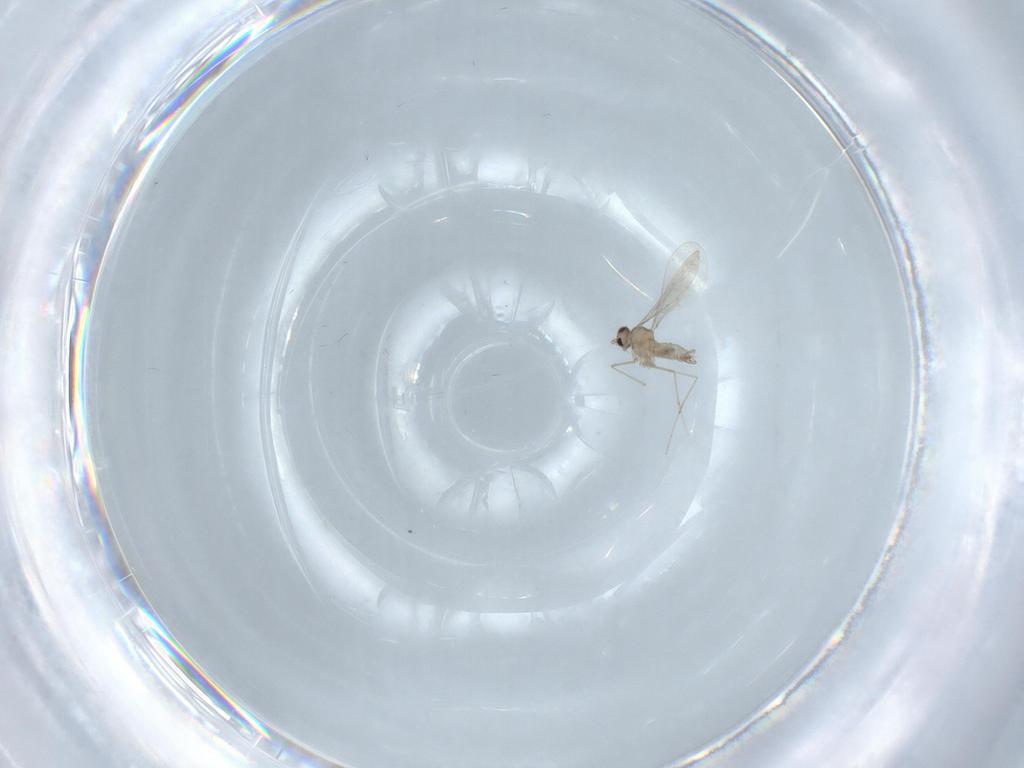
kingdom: Animalia
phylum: Arthropoda
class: Insecta
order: Diptera
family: Cecidomyiidae
